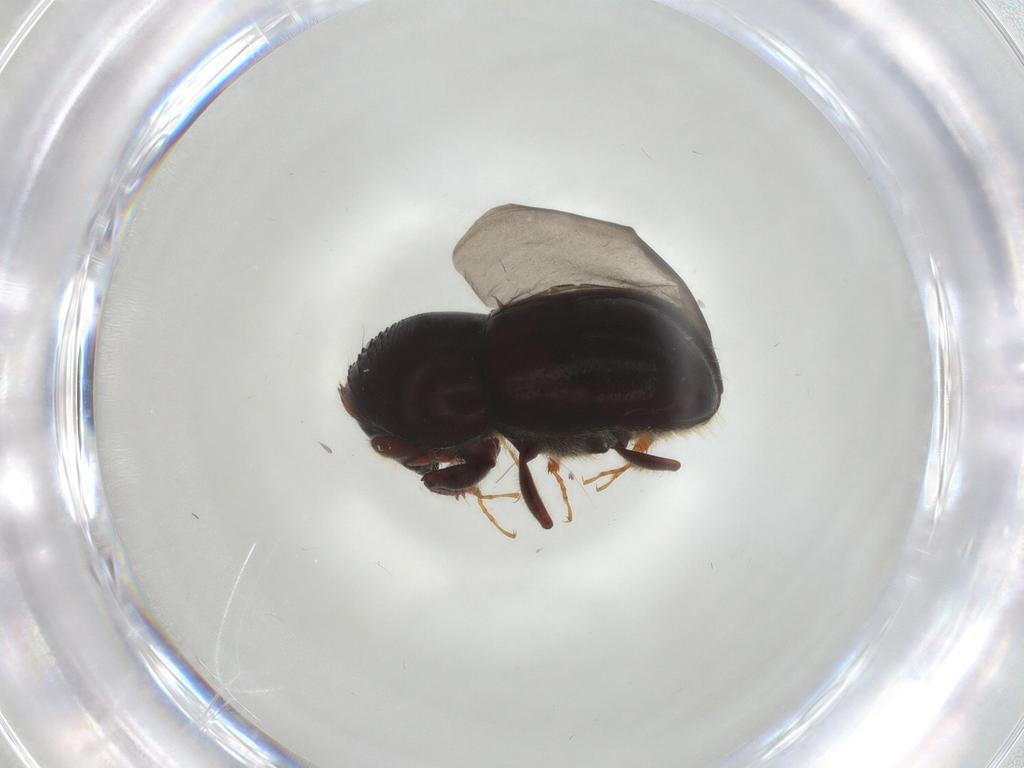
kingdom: Animalia
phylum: Arthropoda
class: Insecta
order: Coleoptera
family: Curculionidae
